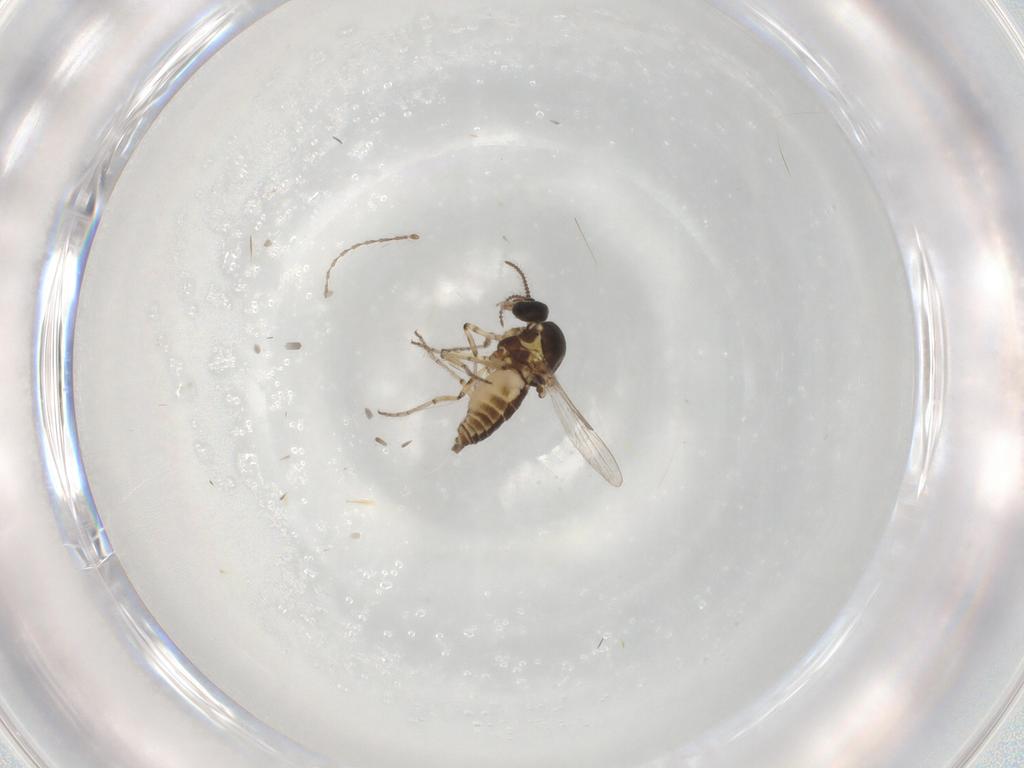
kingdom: Animalia
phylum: Arthropoda
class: Insecta
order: Diptera
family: Ceratopogonidae
